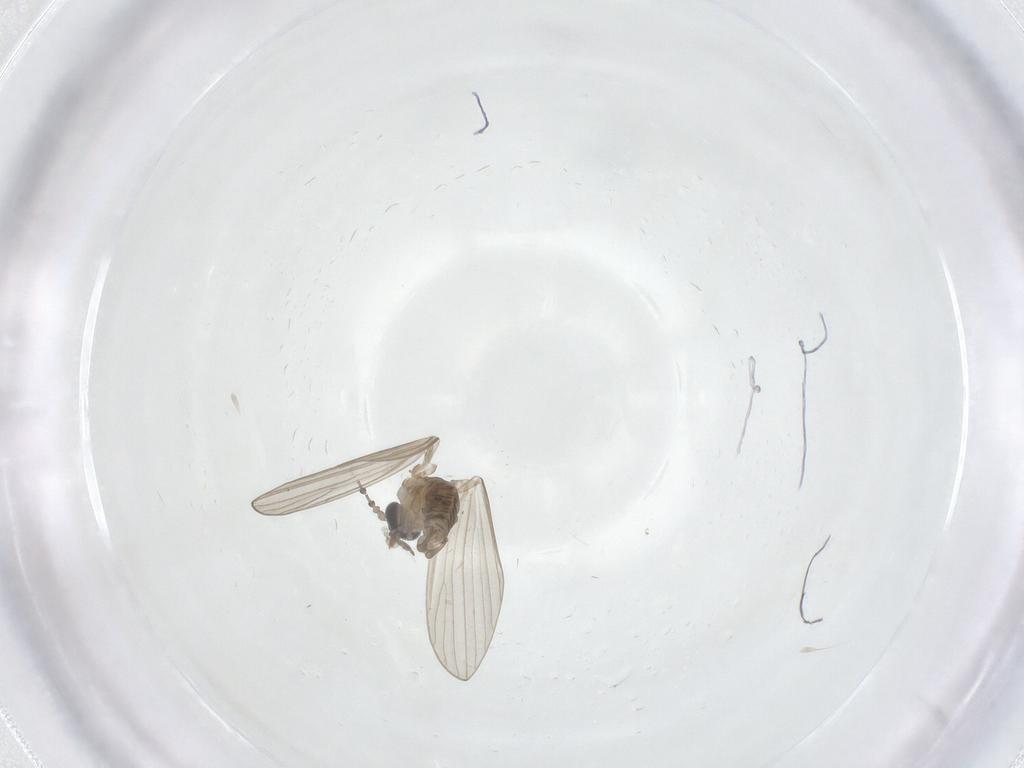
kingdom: Animalia
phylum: Arthropoda
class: Insecta
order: Diptera
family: Psychodidae
